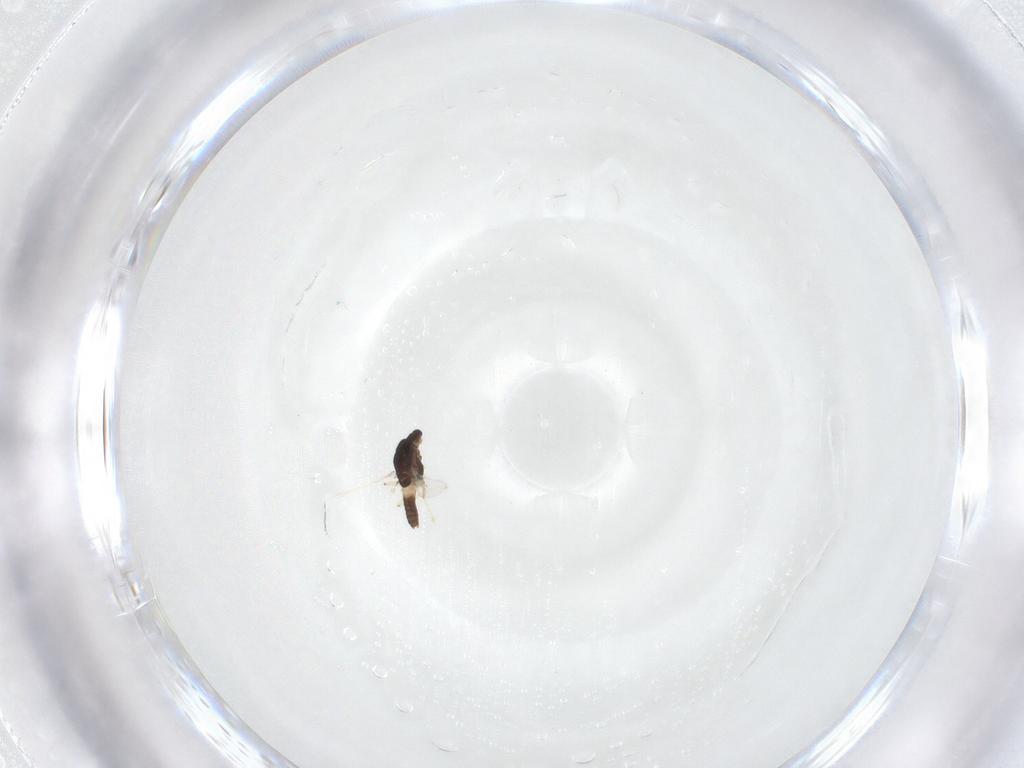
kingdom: Animalia
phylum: Arthropoda
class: Insecta
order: Diptera
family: Chironomidae
